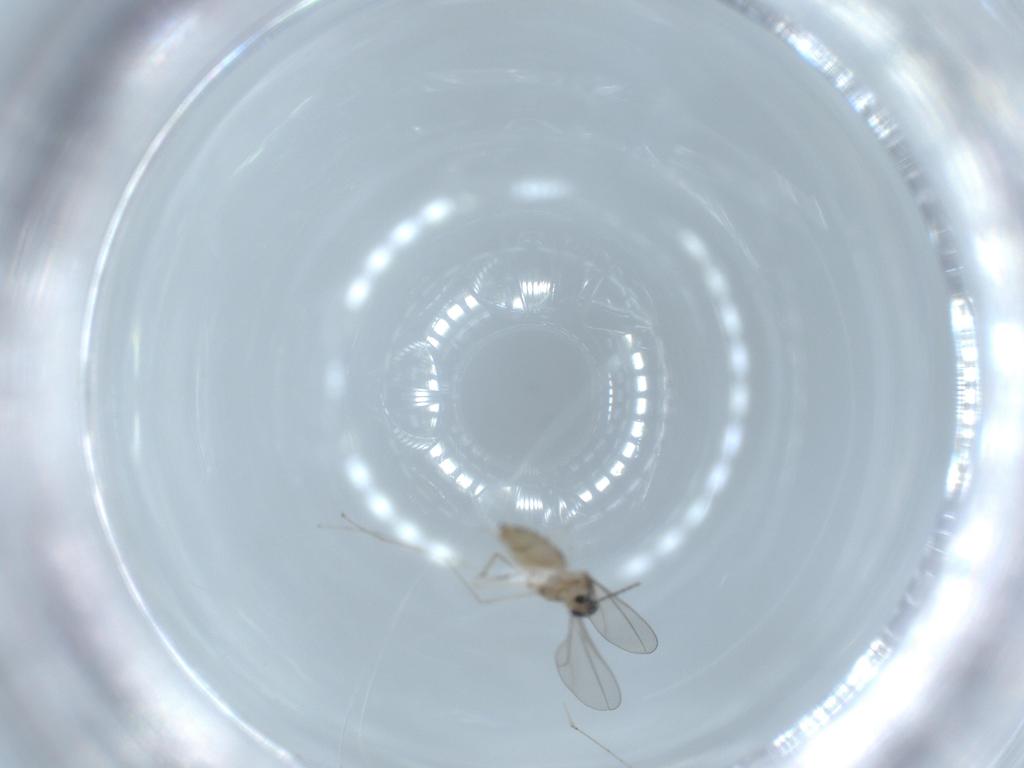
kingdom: Animalia
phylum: Arthropoda
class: Insecta
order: Diptera
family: Cecidomyiidae
